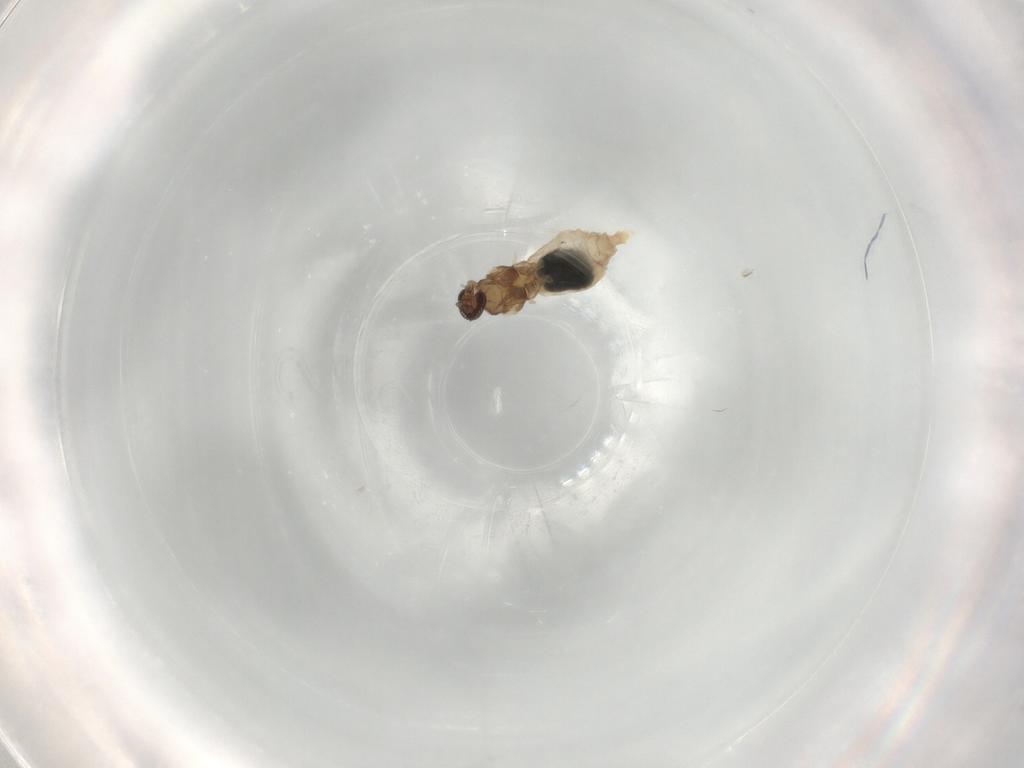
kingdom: Animalia
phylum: Arthropoda
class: Insecta
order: Diptera
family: Cecidomyiidae
